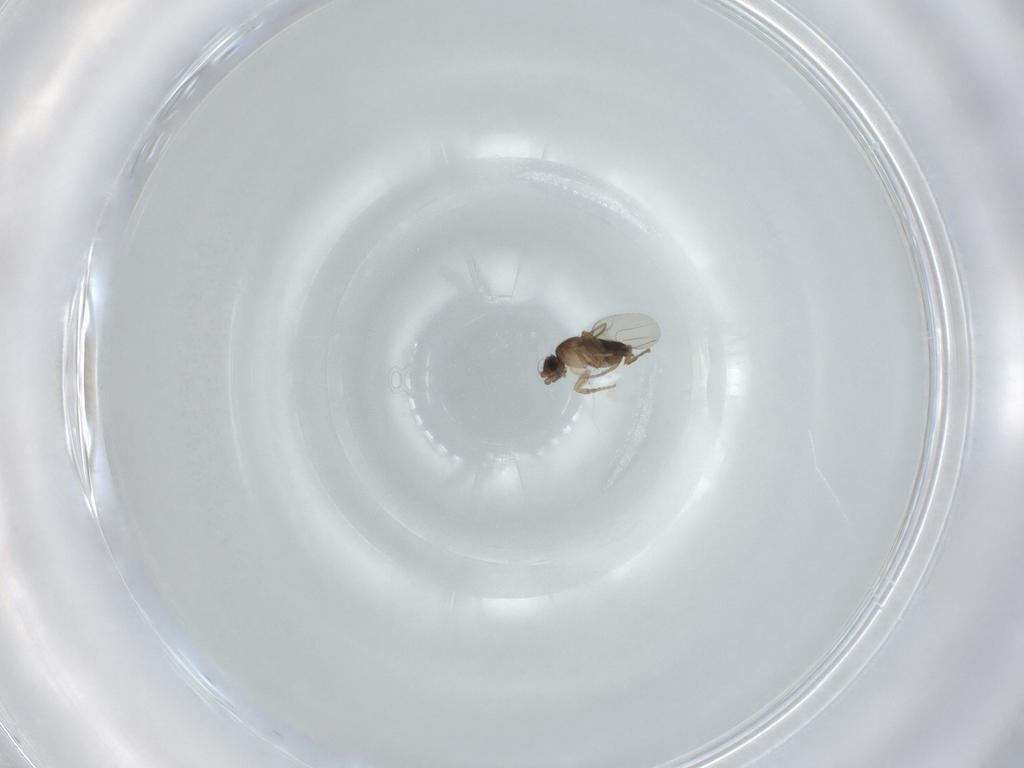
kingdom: Animalia
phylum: Arthropoda
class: Insecta
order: Diptera
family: Phoridae
